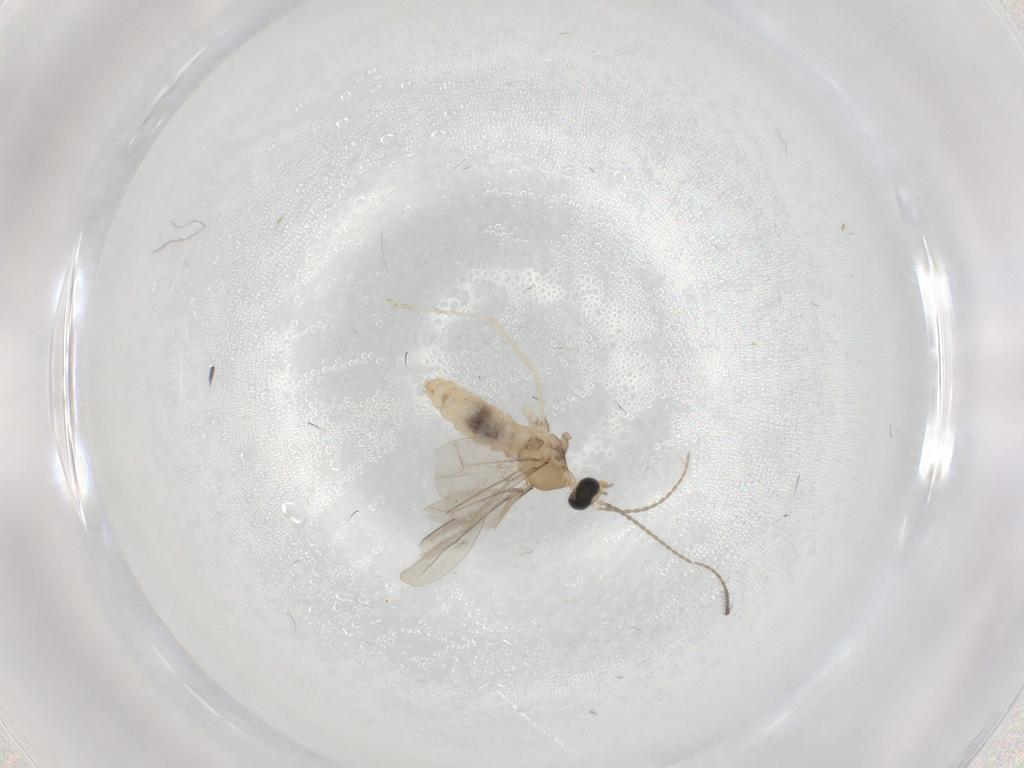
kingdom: Animalia
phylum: Arthropoda
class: Insecta
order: Diptera
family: Ceratopogonidae
